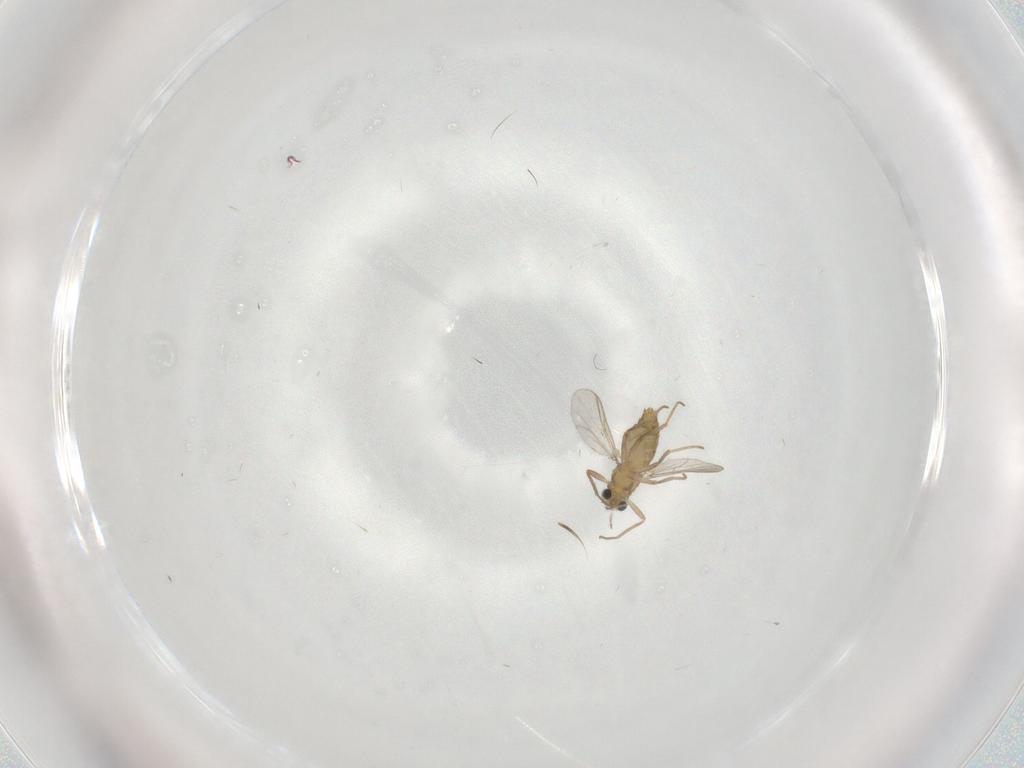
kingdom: Animalia
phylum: Arthropoda
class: Insecta
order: Diptera
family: Chironomidae
